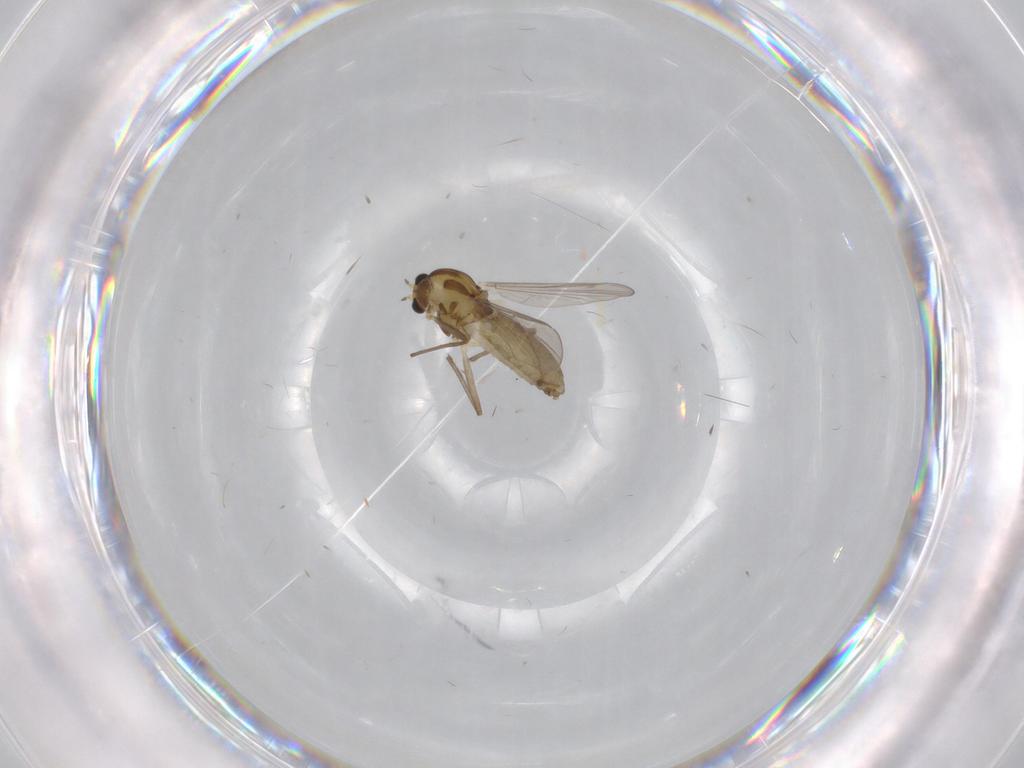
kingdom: Animalia
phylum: Arthropoda
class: Insecta
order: Diptera
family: Chironomidae
